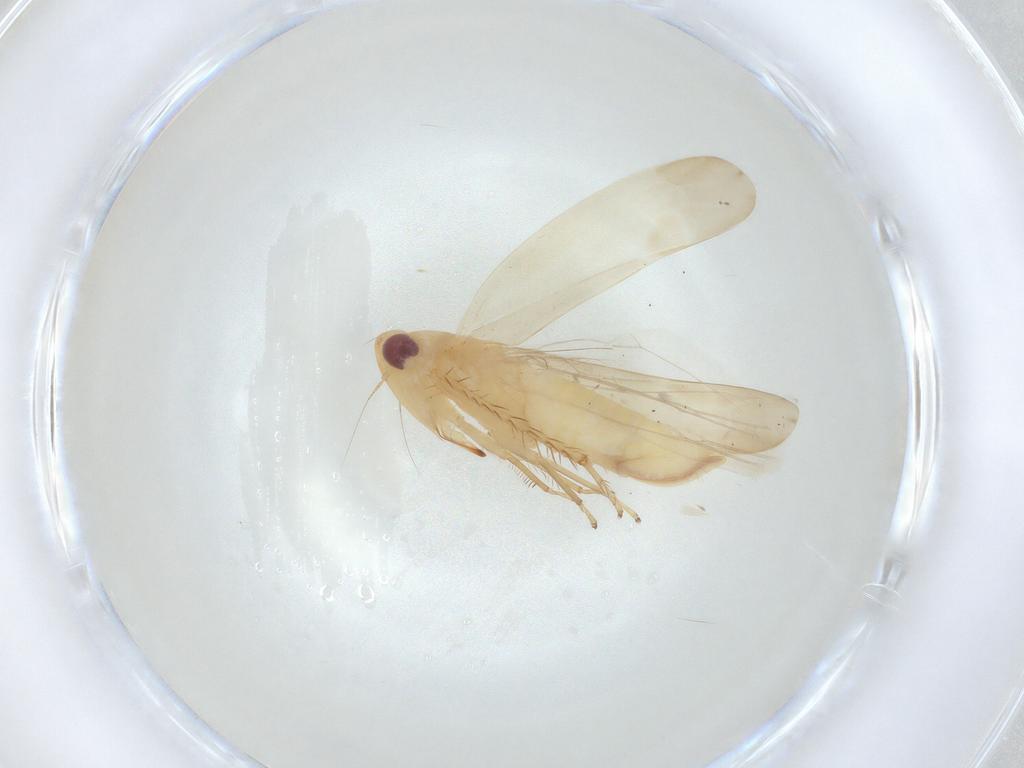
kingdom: Animalia
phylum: Arthropoda
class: Insecta
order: Hemiptera
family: Cicadellidae
